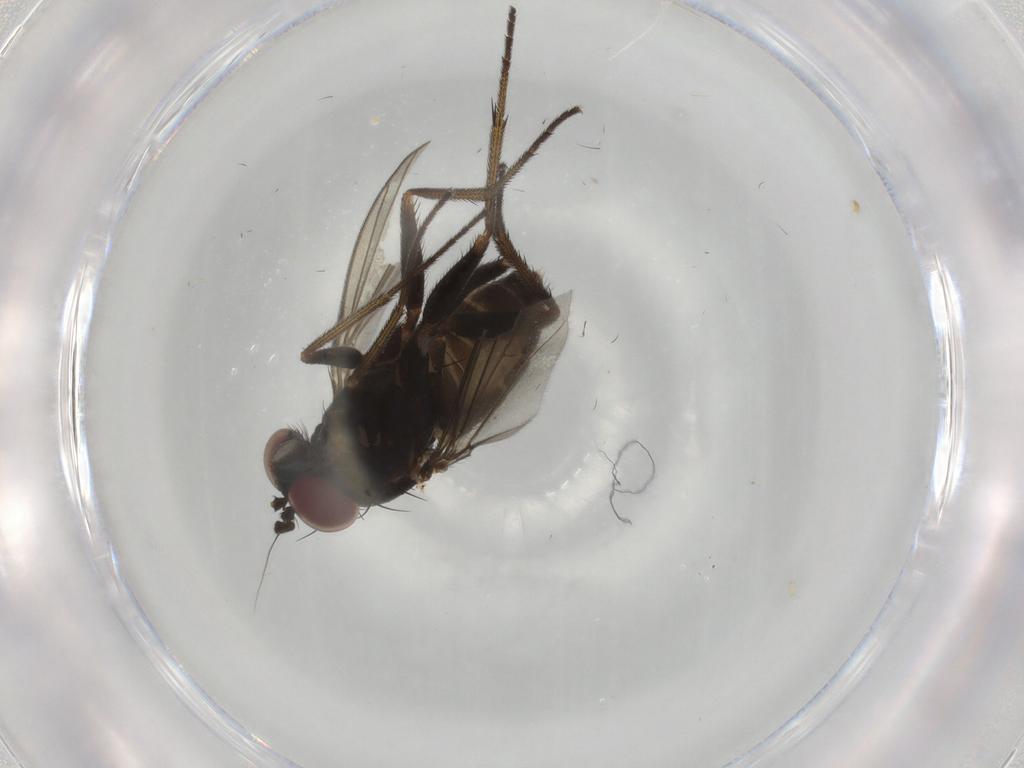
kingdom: Animalia
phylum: Arthropoda
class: Insecta
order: Diptera
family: Dolichopodidae
